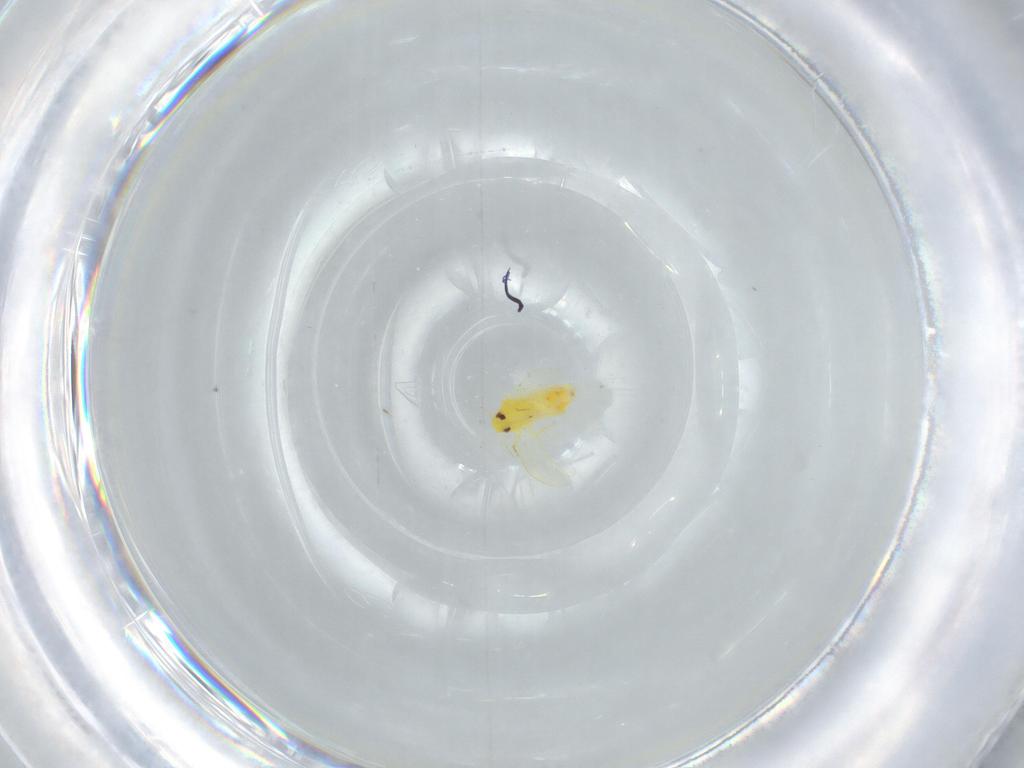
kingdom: Animalia
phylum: Arthropoda
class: Insecta
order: Hemiptera
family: Aleyrodidae
